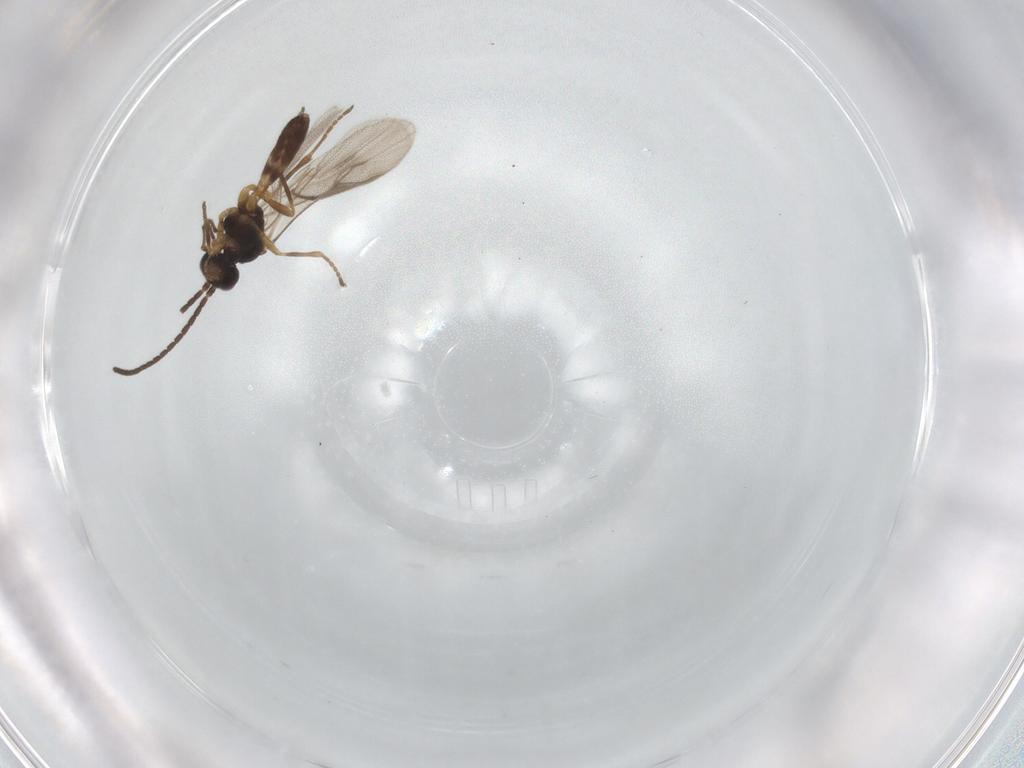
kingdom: Animalia
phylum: Arthropoda
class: Insecta
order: Hymenoptera
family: Braconidae
